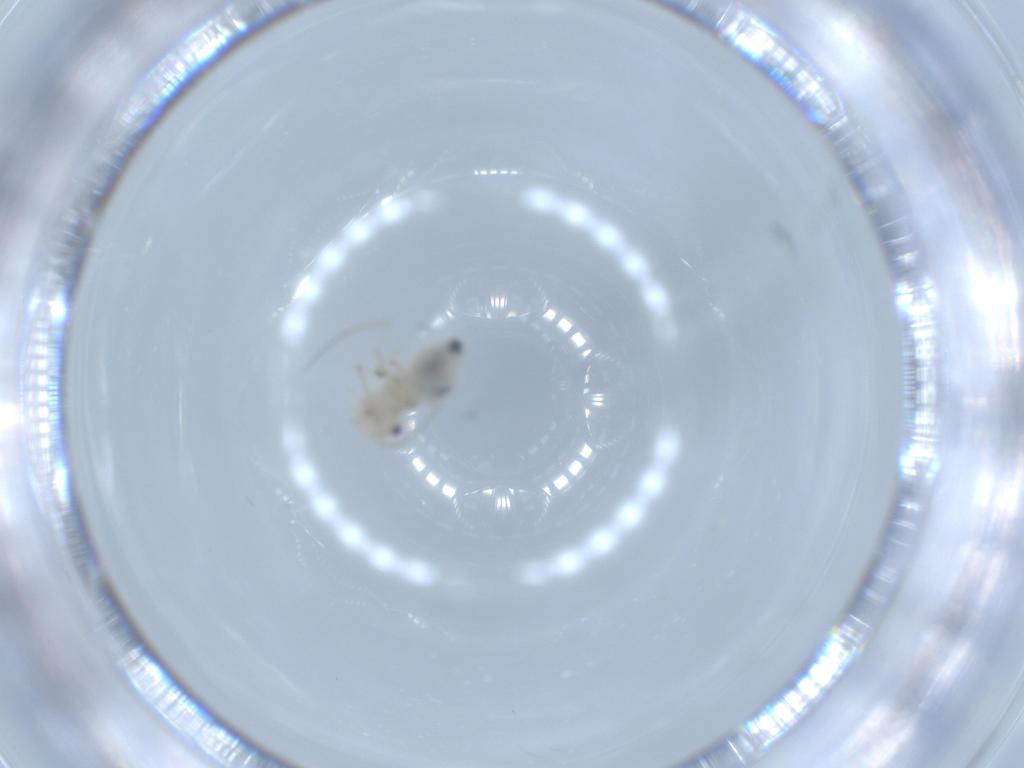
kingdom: Animalia
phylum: Arthropoda
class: Insecta
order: Psocodea
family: Amphipsocidae
